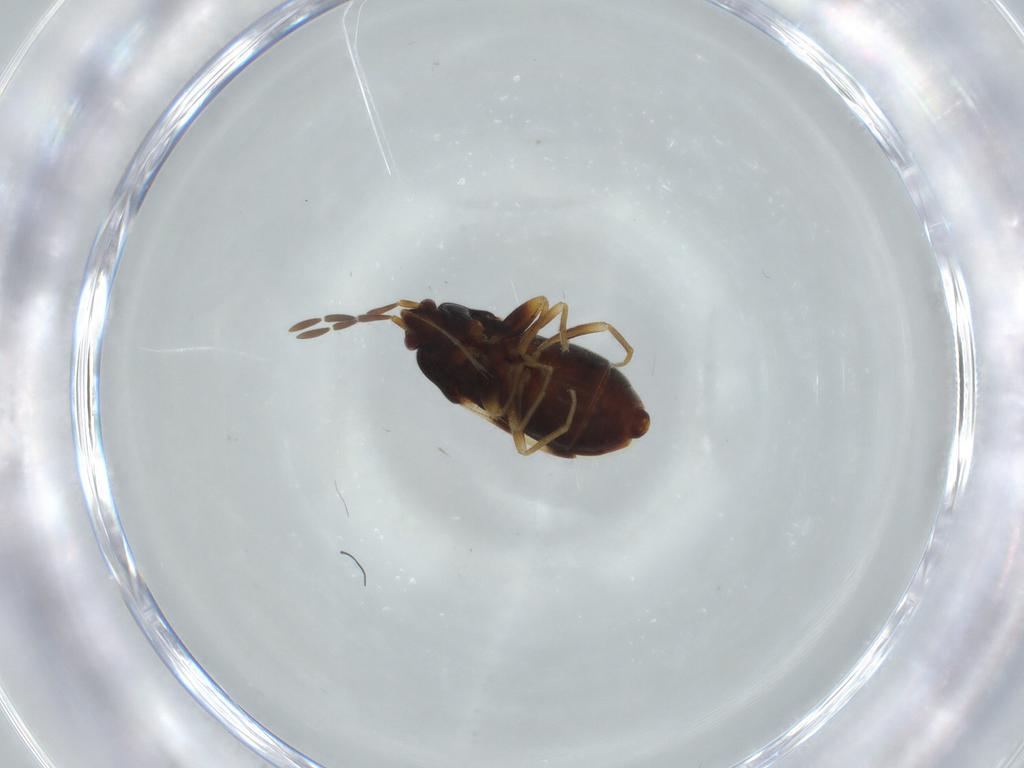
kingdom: Animalia
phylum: Arthropoda
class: Insecta
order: Hemiptera
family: Rhyparochromidae
